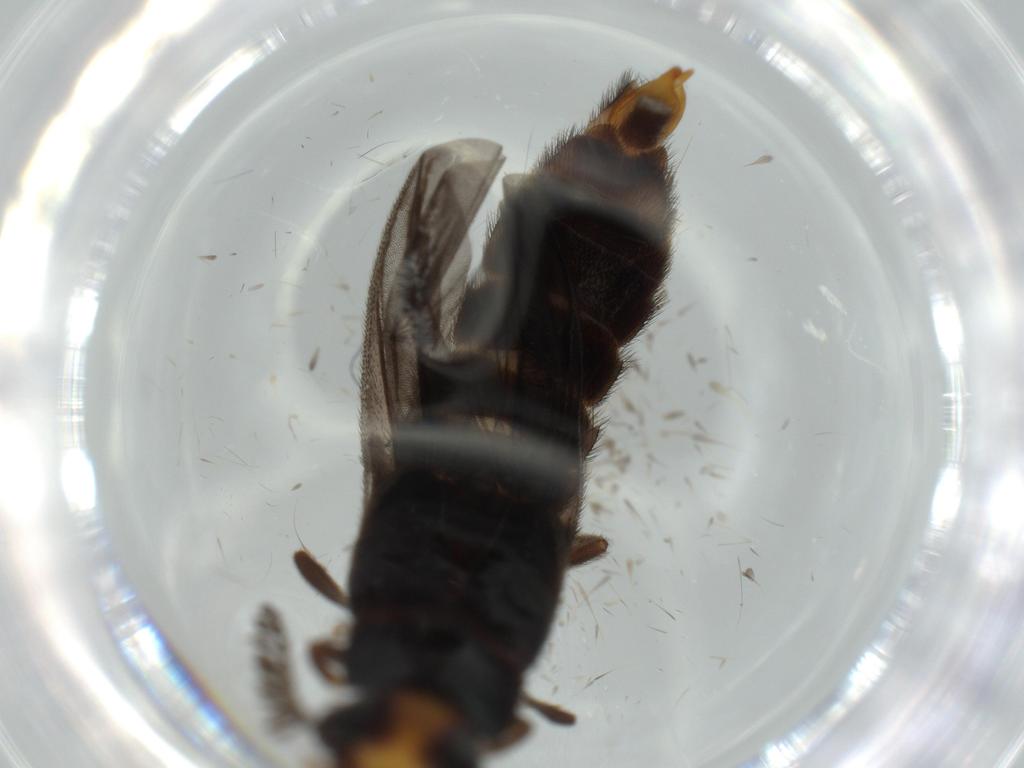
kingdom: Animalia
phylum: Arthropoda
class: Insecta
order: Coleoptera
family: Phengodidae
